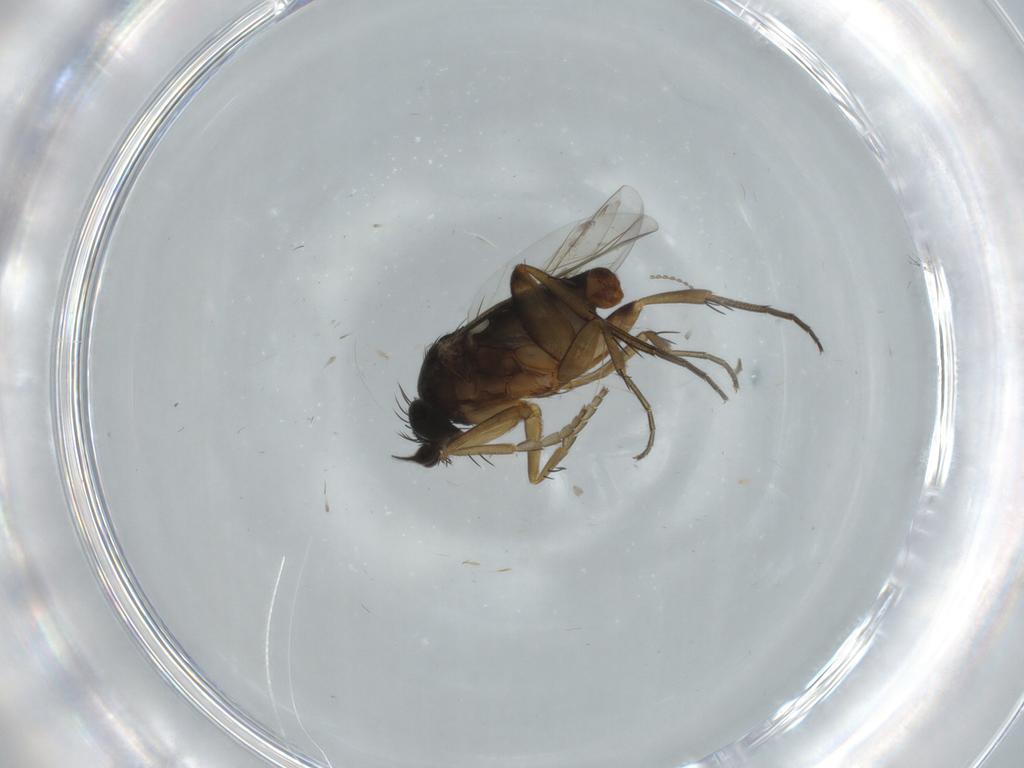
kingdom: Animalia
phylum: Arthropoda
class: Insecta
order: Diptera
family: Phoridae
